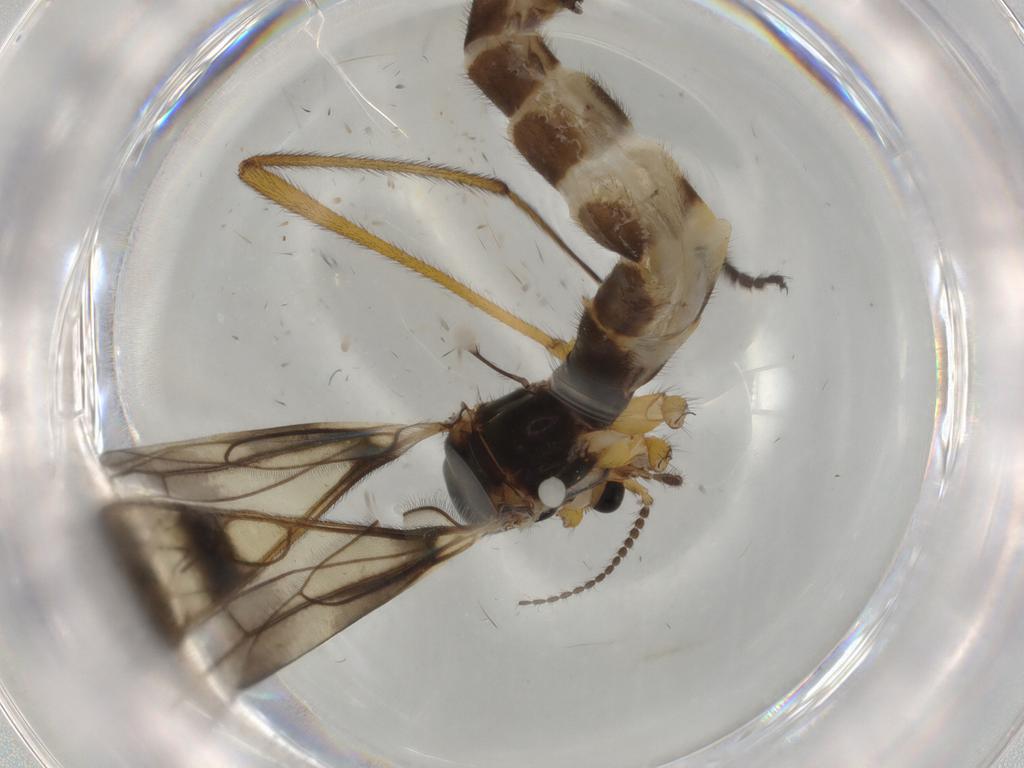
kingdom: Animalia
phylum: Arthropoda
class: Insecta
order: Diptera
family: Limoniidae
